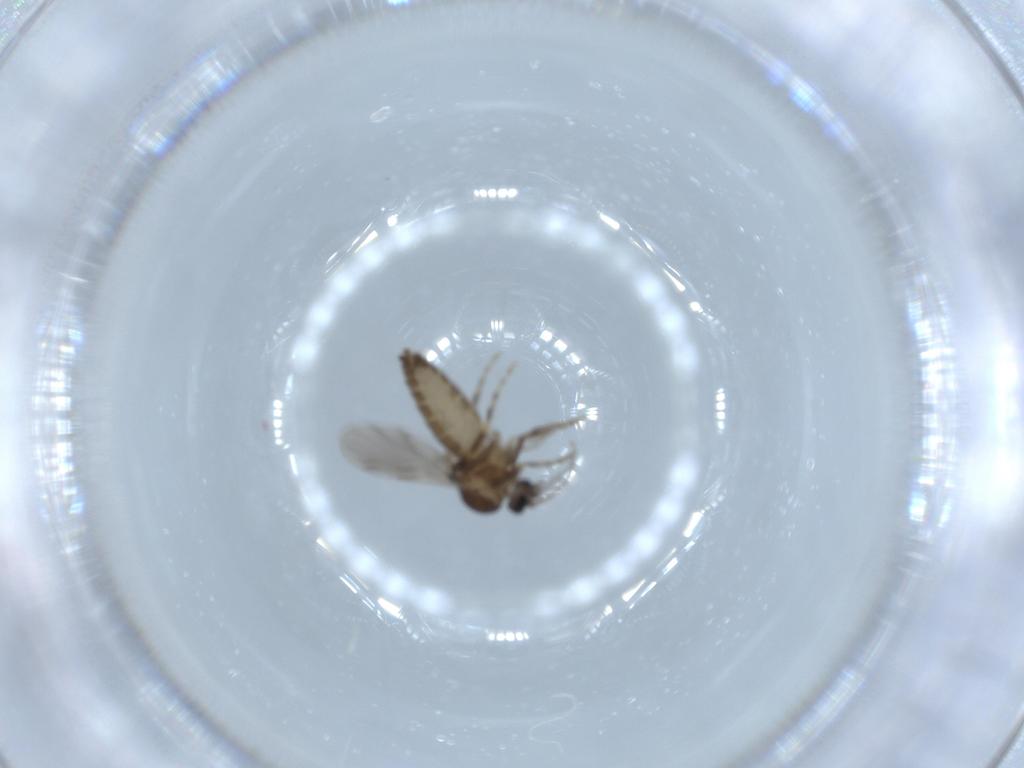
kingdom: Animalia
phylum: Arthropoda
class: Insecta
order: Diptera
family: Ceratopogonidae
